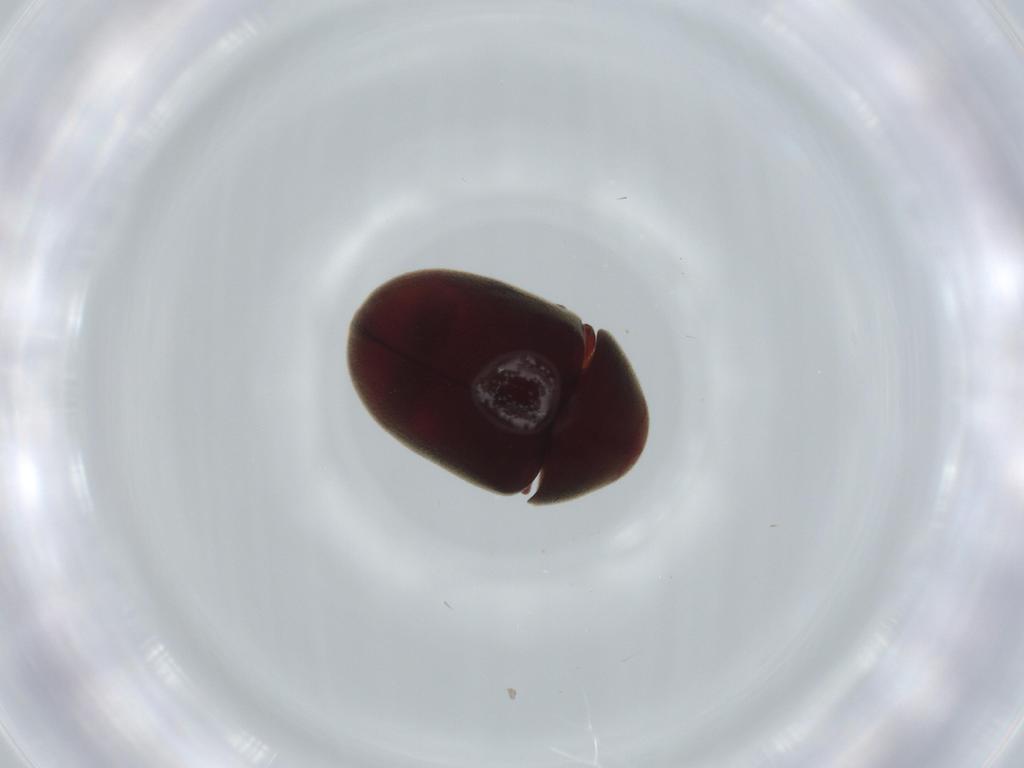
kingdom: Animalia
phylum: Arthropoda
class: Insecta
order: Coleoptera
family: Ptinidae
